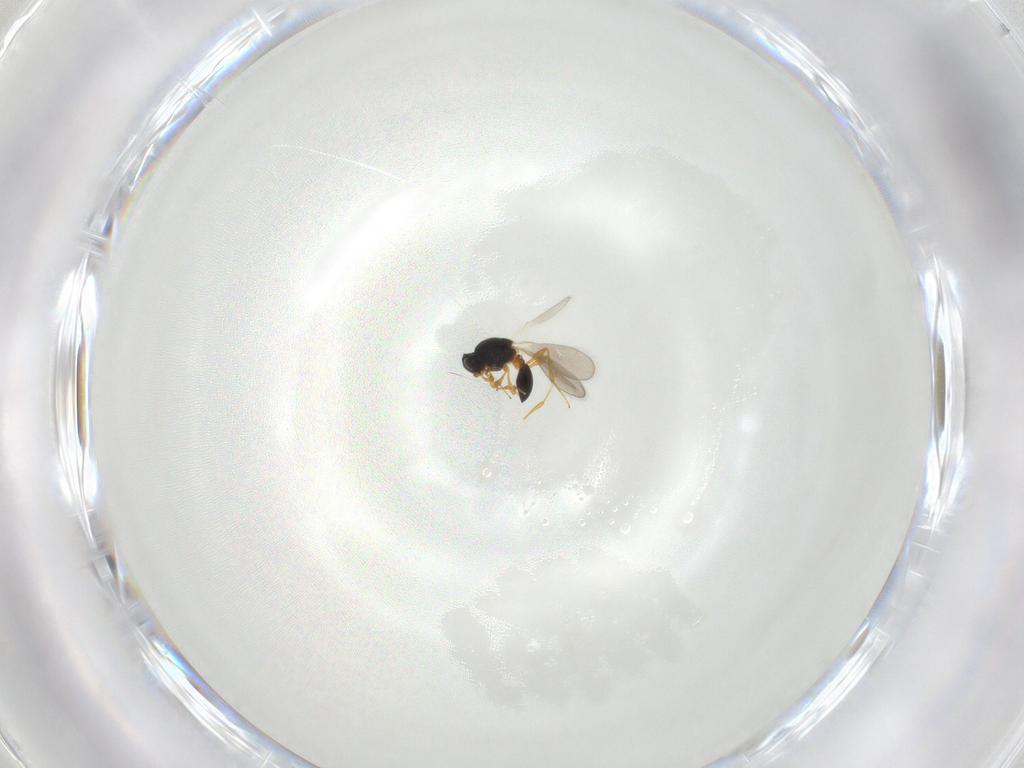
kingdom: Animalia
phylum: Arthropoda
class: Insecta
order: Hymenoptera
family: Platygastridae
